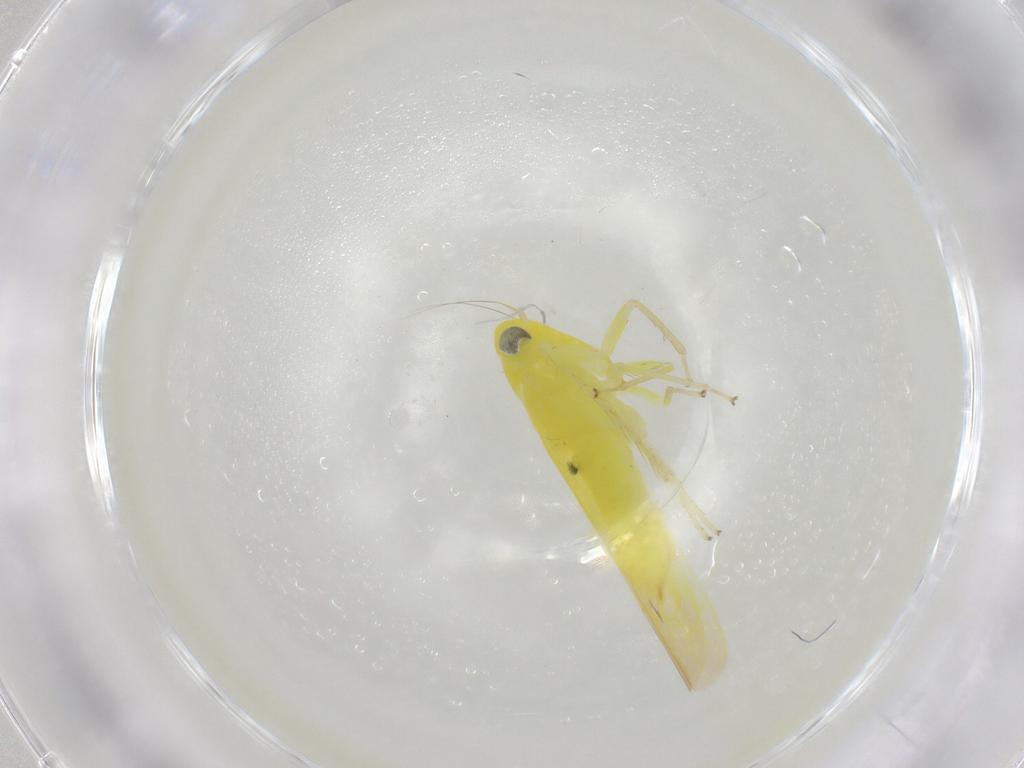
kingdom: Animalia
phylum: Arthropoda
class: Insecta
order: Hemiptera
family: Cicadellidae
